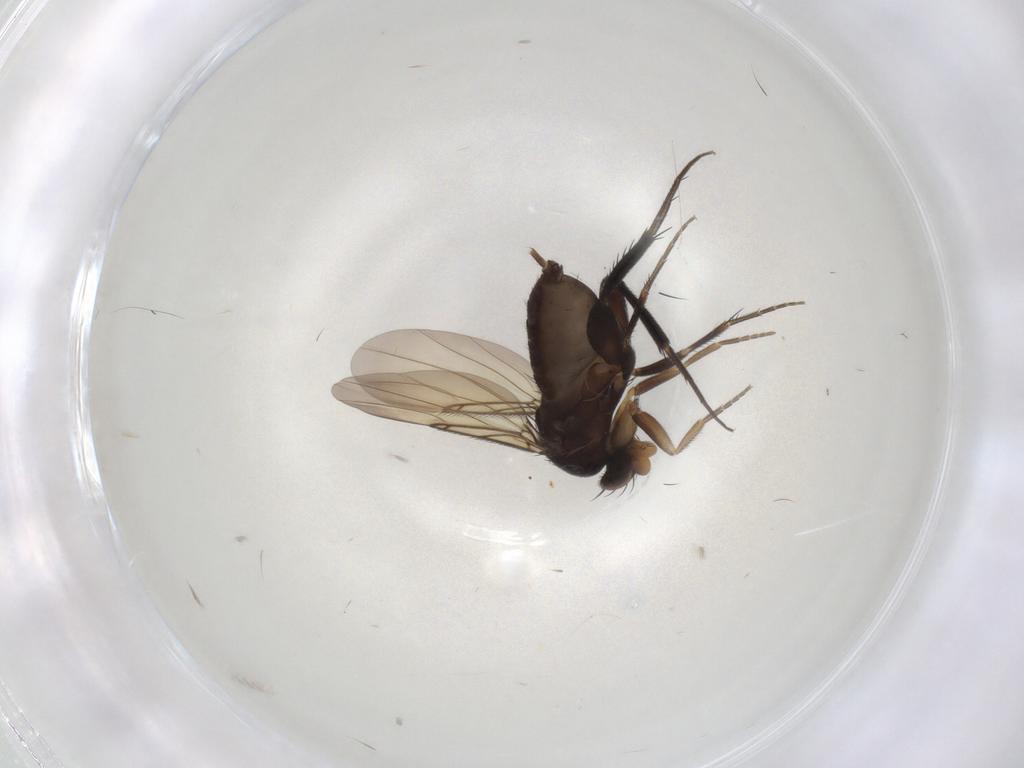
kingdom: Animalia
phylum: Arthropoda
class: Insecta
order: Diptera
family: Phoridae
